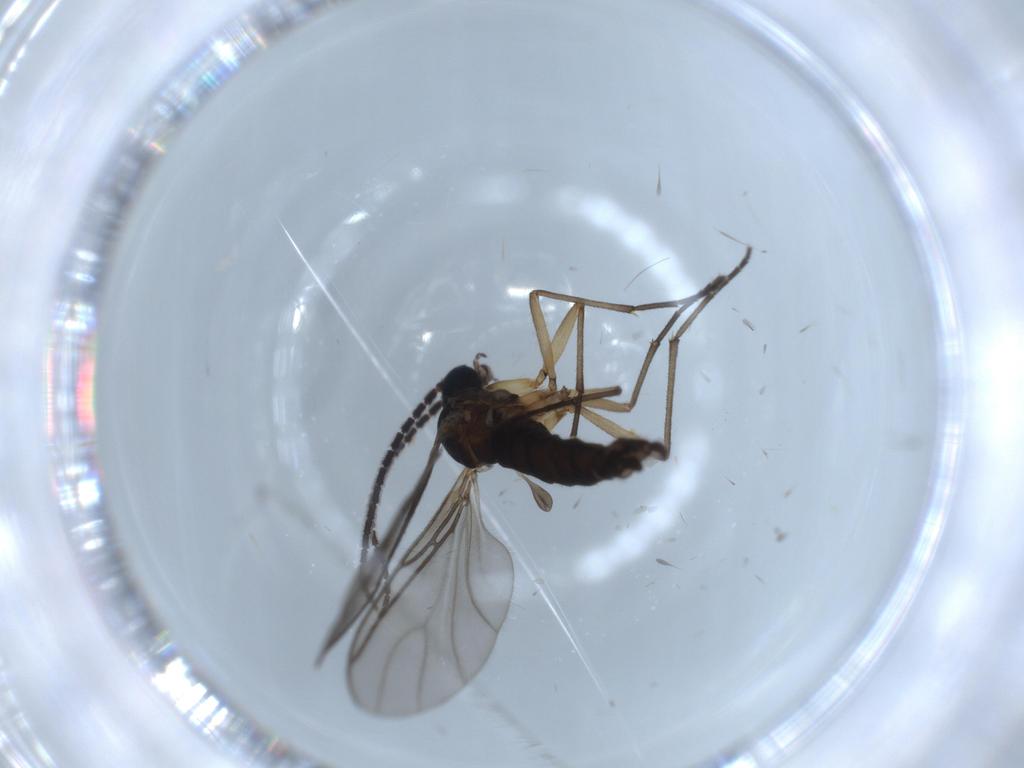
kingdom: Animalia
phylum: Arthropoda
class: Insecta
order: Diptera
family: Sciaridae
